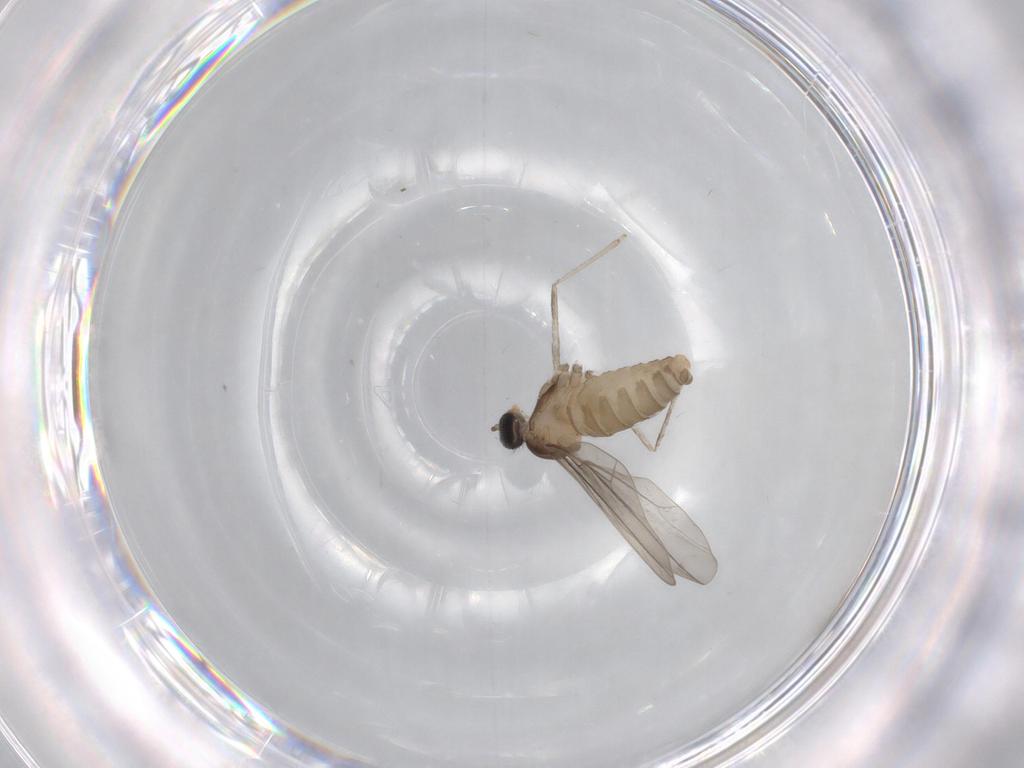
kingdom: Animalia
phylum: Arthropoda
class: Insecta
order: Diptera
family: Cecidomyiidae
